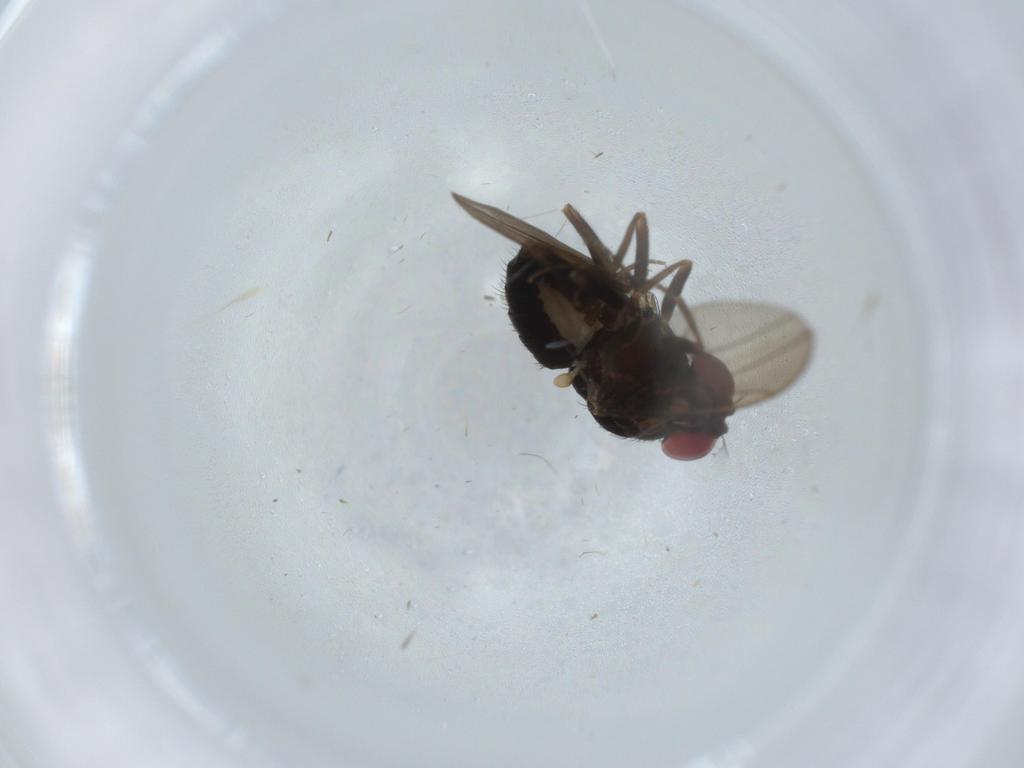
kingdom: Animalia
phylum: Arthropoda
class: Insecta
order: Diptera
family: Drosophilidae
